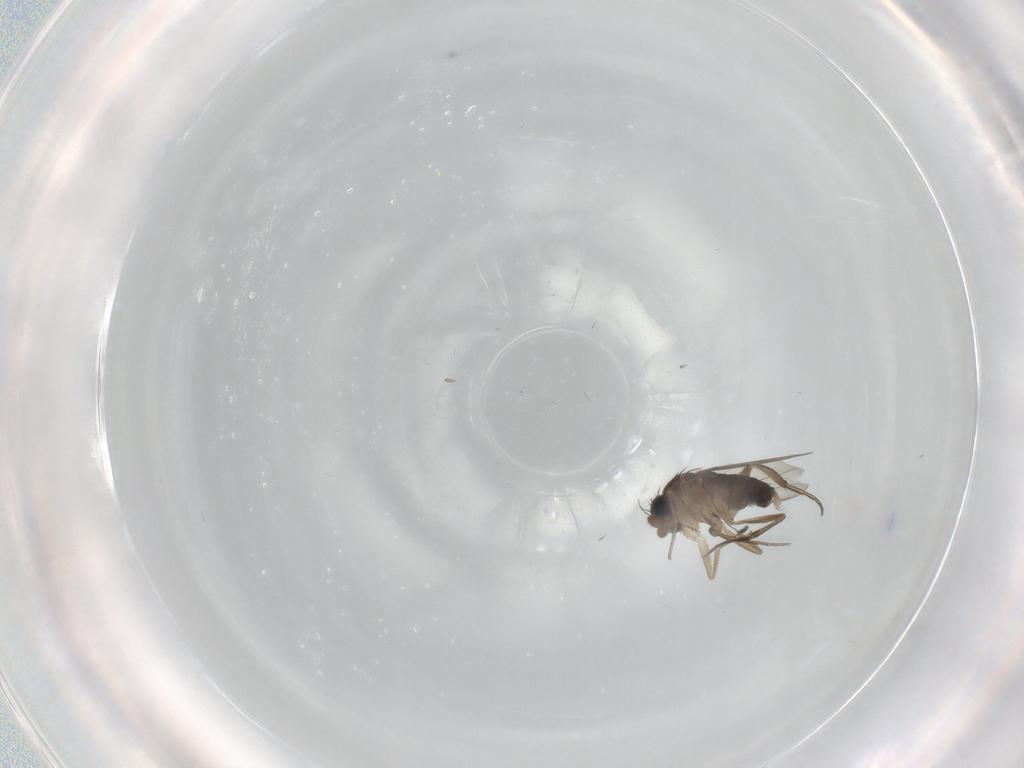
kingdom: Animalia
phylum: Arthropoda
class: Insecta
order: Diptera
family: Phoridae
